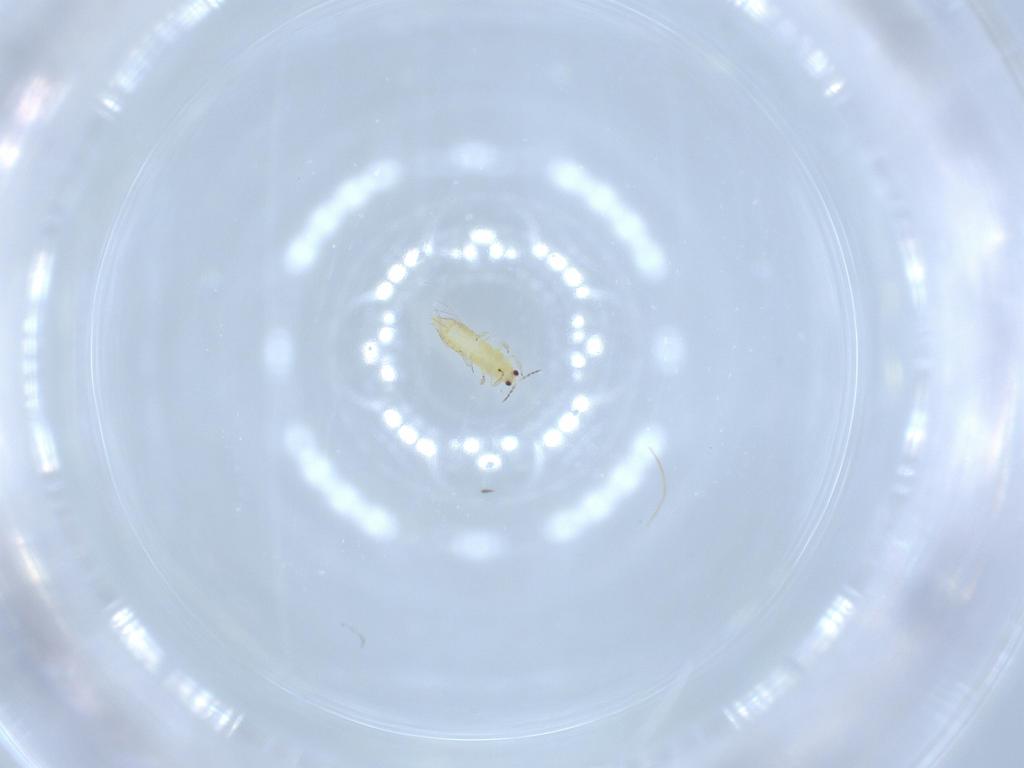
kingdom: Animalia
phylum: Arthropoda
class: Insecta
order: Thysanoptera
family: Thripidae
